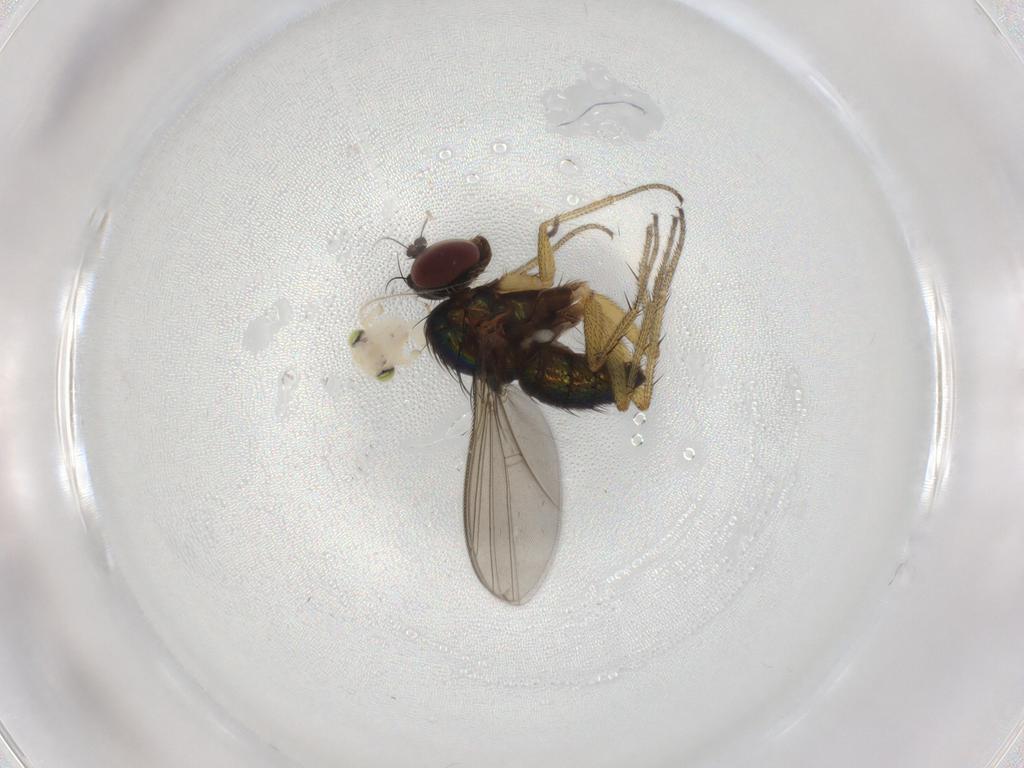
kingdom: Animalia
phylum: Arthropoda
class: Insecta
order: Diptera
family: Dolichopodidae
